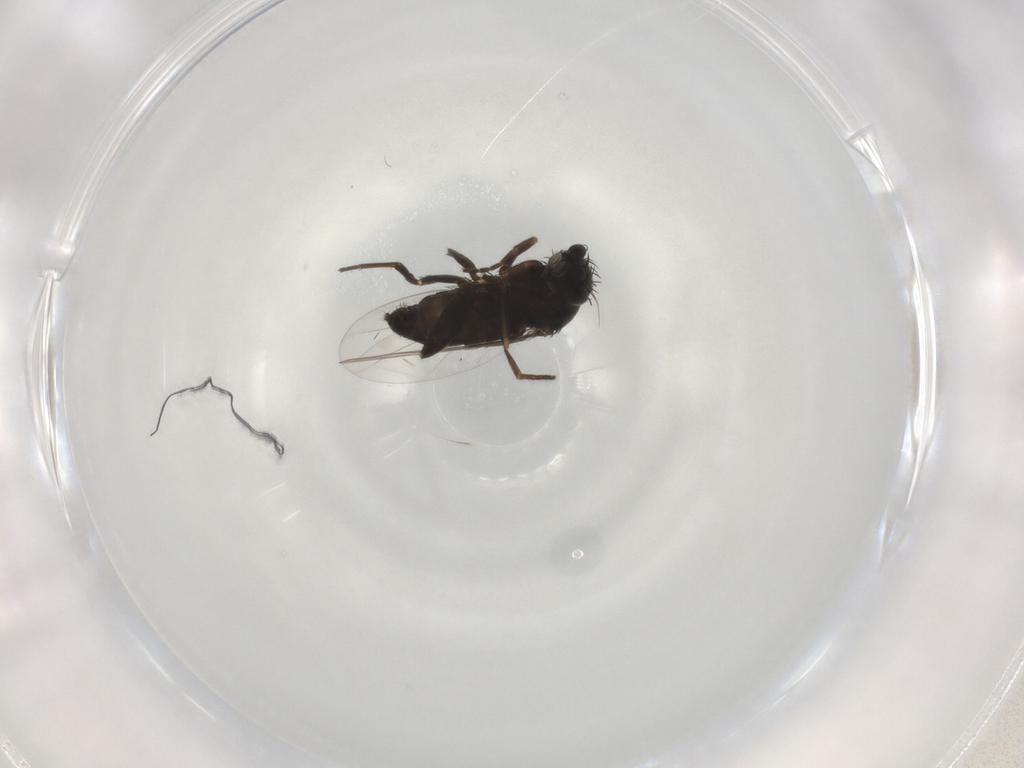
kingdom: Animalia
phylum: Arthropoda
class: Insecta
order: Diptera
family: Phoridae
